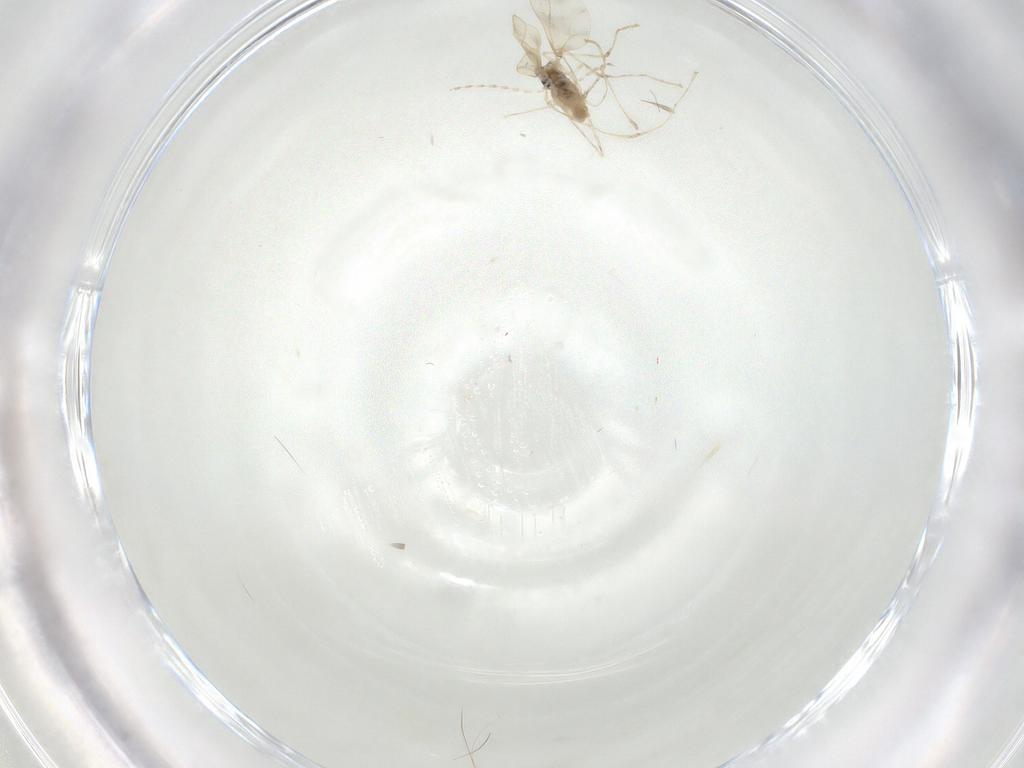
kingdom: Animalia
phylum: Arthropoda
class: Insecta
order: Diptera
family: Cecidomyiidae
